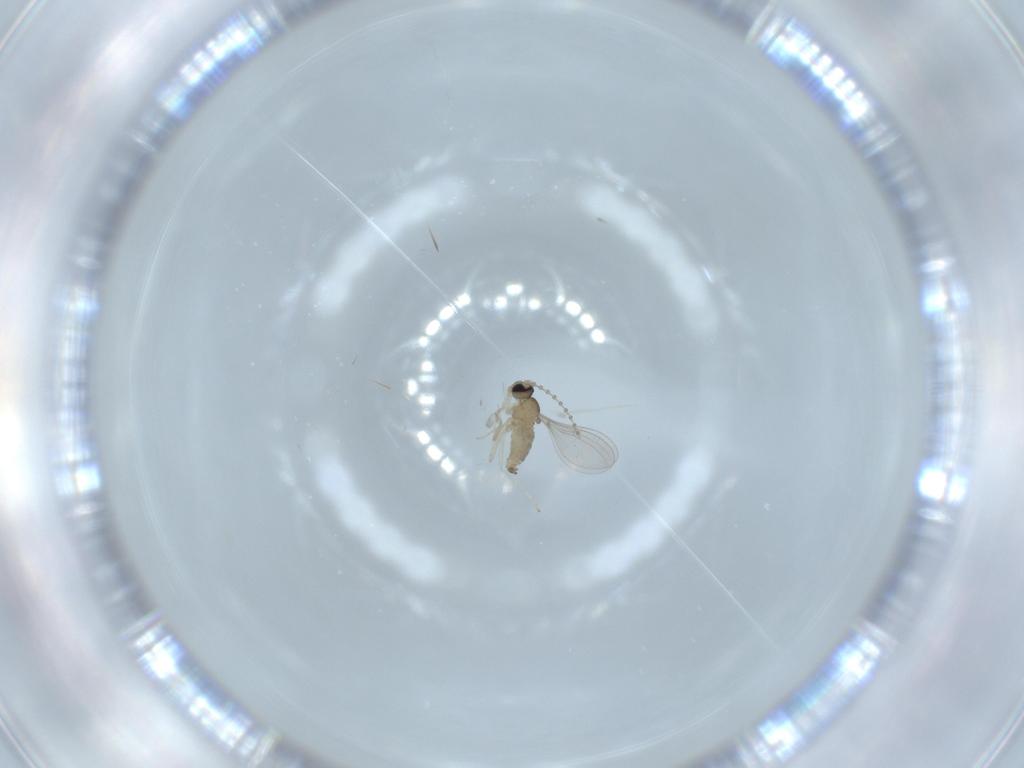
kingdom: Animalia
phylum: Arthropoda
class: Insecta
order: Diptera
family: Cecidomyiidae
